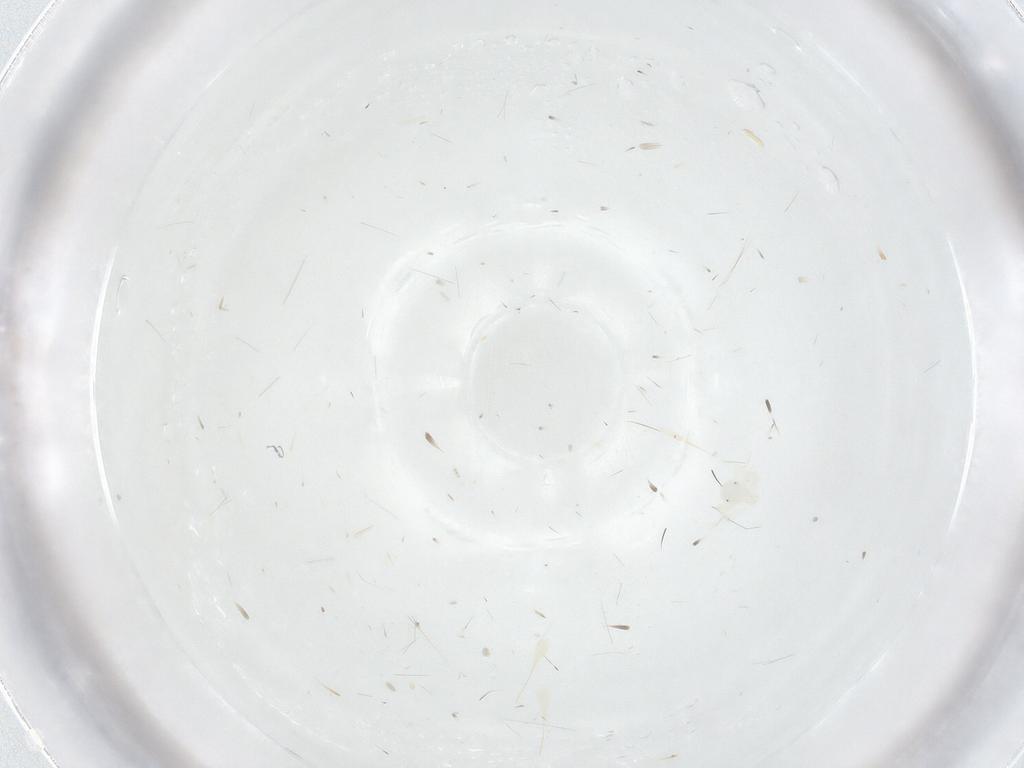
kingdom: Animalia
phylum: Arthropoda
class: Arachnida
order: Trombidiformes
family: Anystidae
